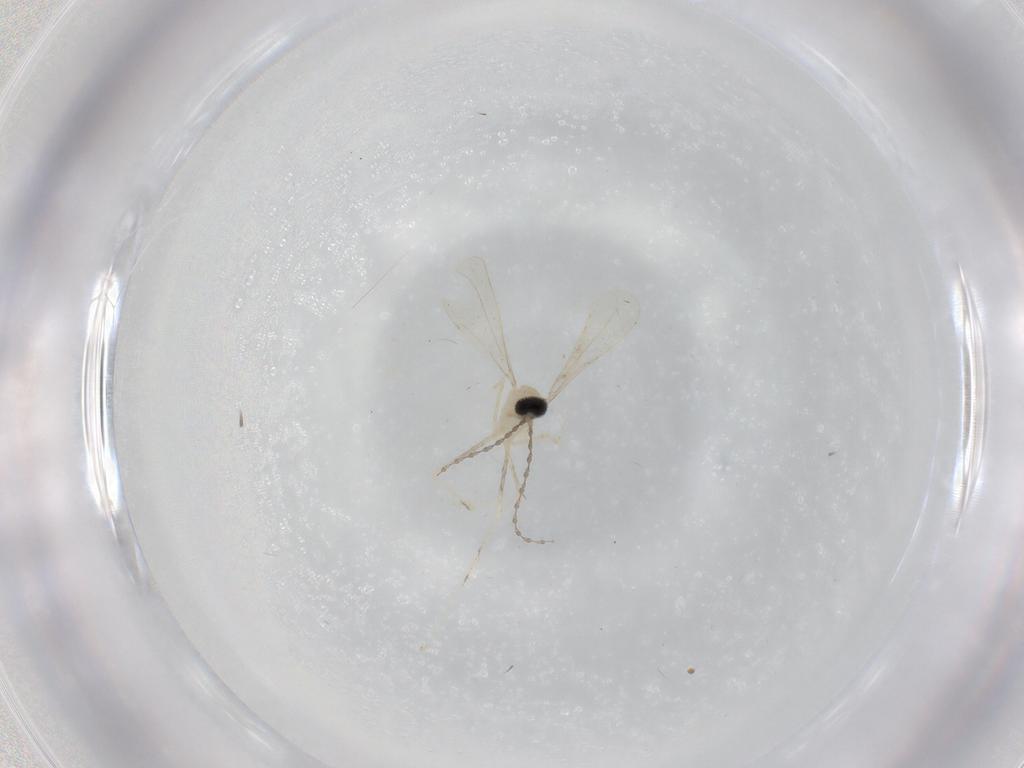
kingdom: Animalia
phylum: Arthropoda
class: Insecta
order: Diptera
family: Cecidomyiidae
